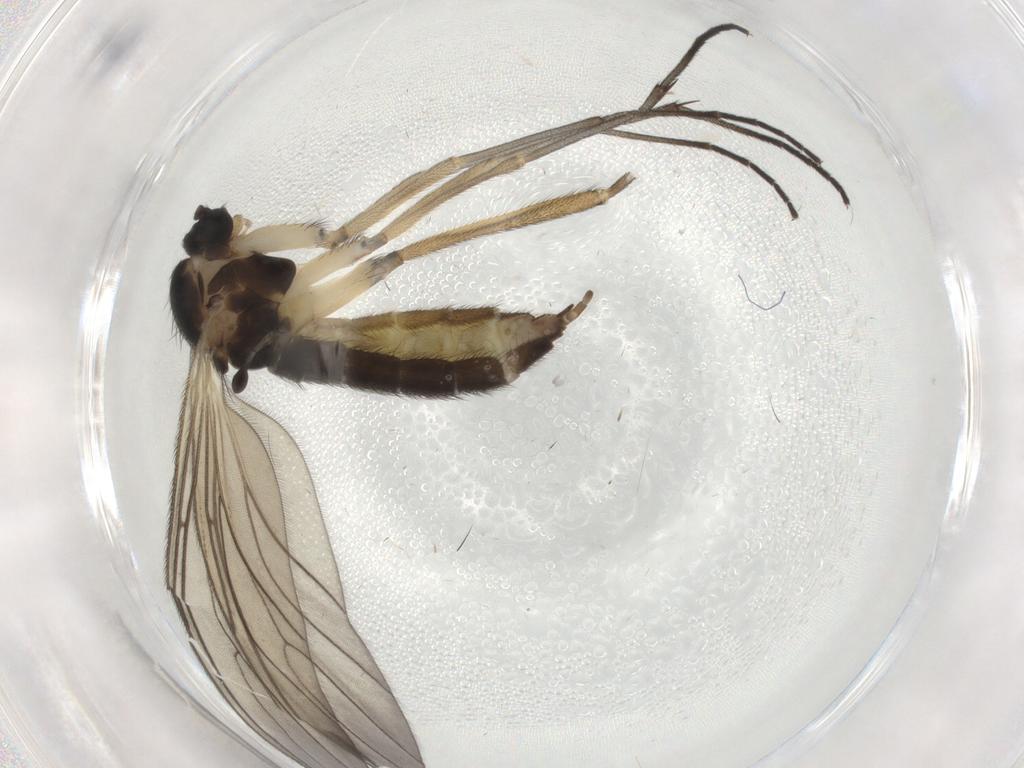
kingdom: Animalia
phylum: Arthropoda
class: Insecta
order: Diptera
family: Sciaridae
